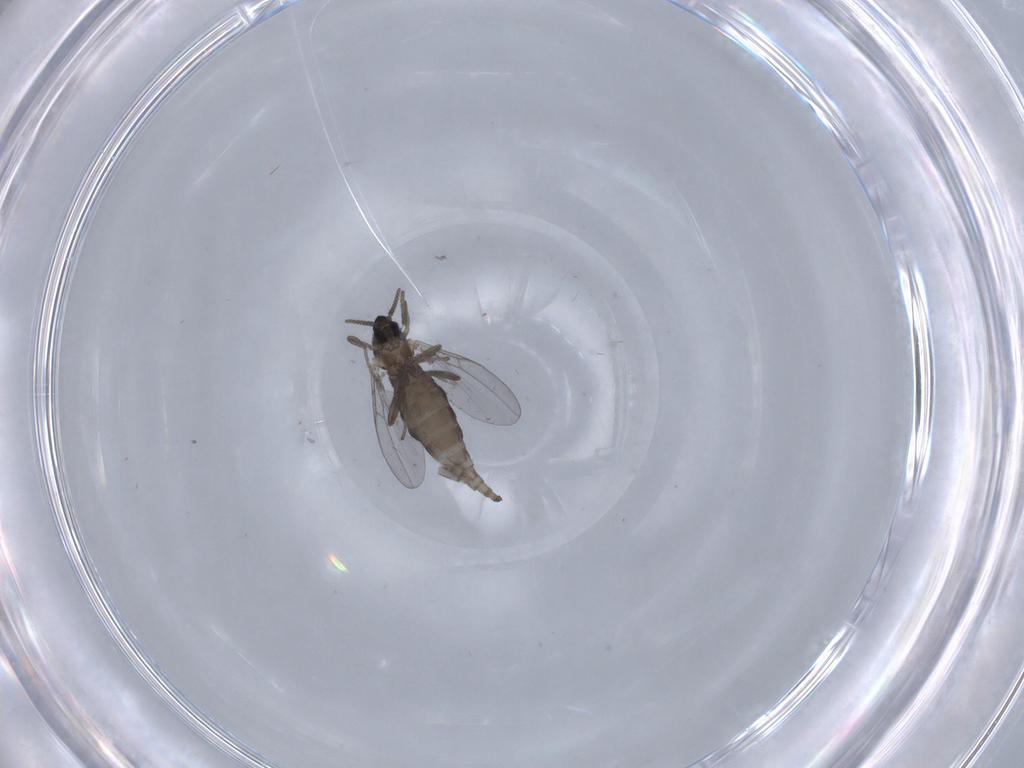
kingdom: Animalia
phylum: Arthropoda
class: Insecta
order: Diptera
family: Cecidomyiidae
